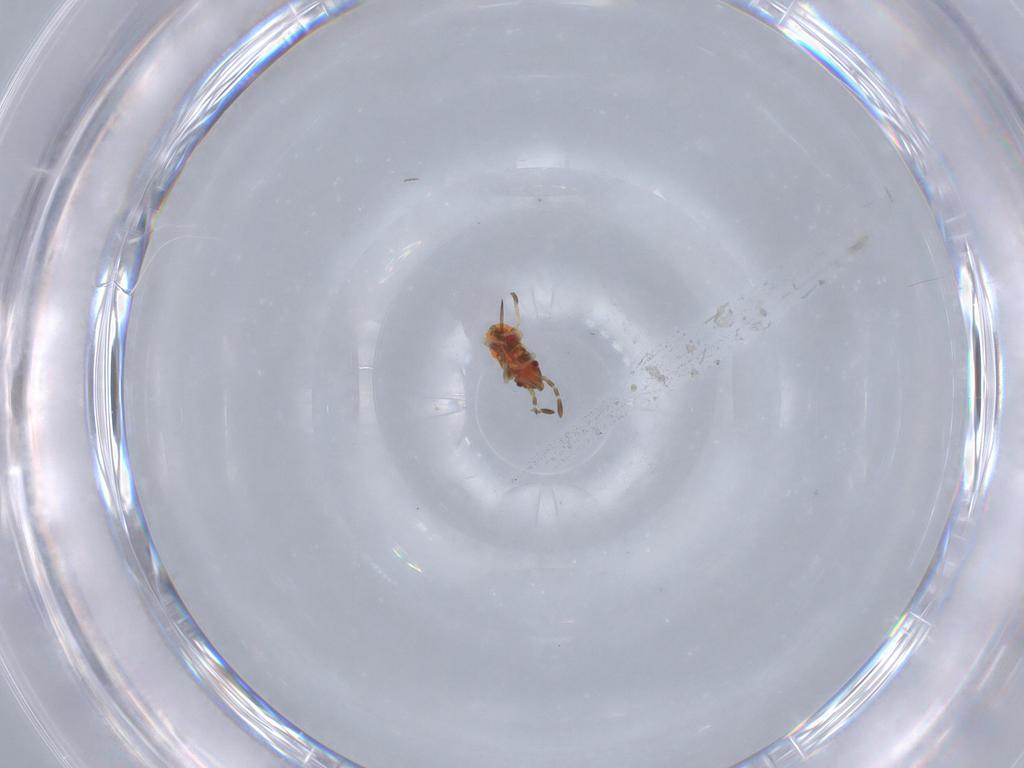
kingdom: Animalia
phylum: Arthropoda
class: Insecta
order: Hemiptera
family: Rhyparochromidae
